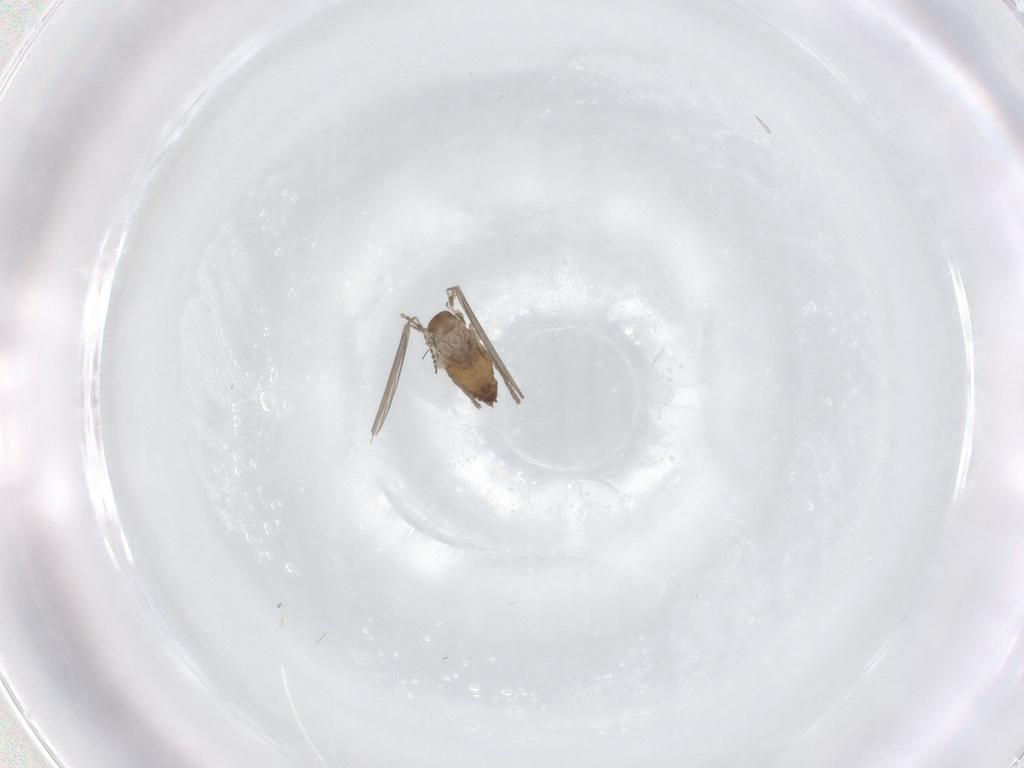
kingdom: Animalia
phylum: Arthropoda
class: Insecta
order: Diptera
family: Psychodidae
